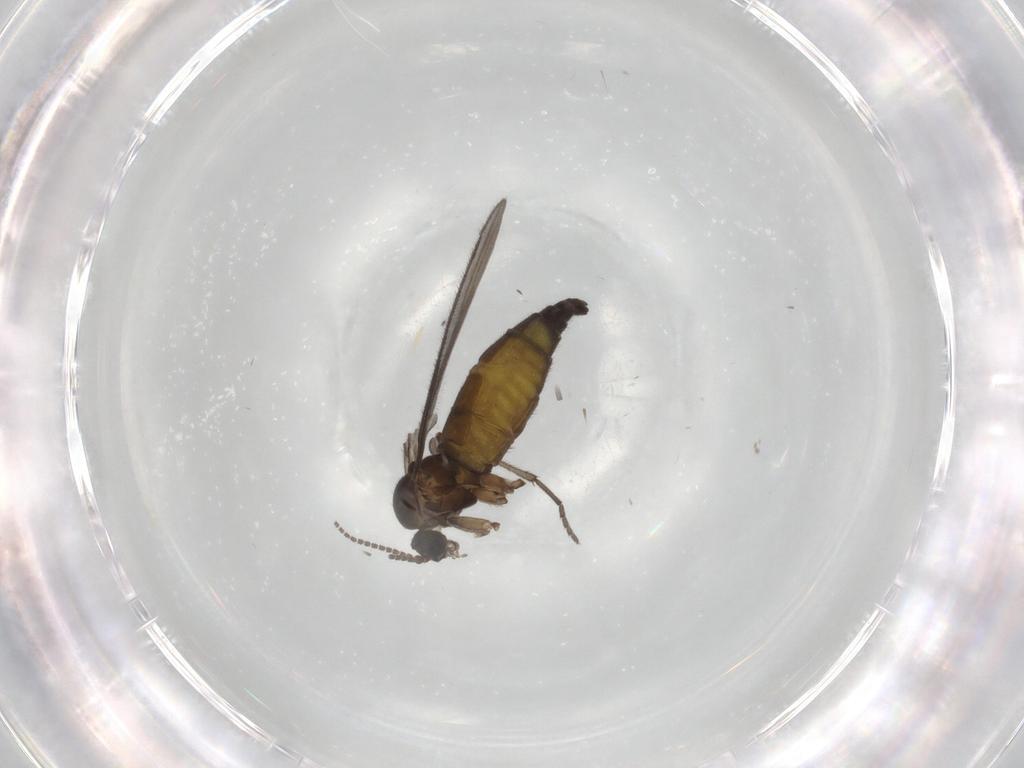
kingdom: Animalia
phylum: Arthropoda
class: Insecta
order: Diptera
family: Sciaridae
